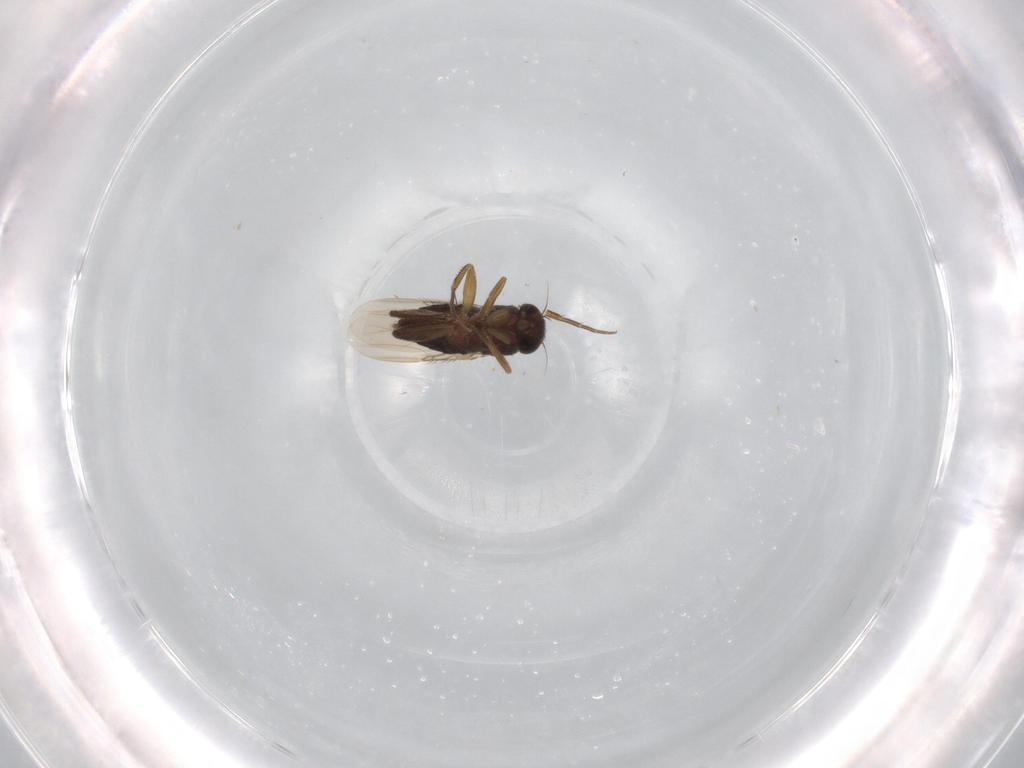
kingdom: Animalia
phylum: Arthropoda
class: Insecta
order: Diptera
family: Phoridae
